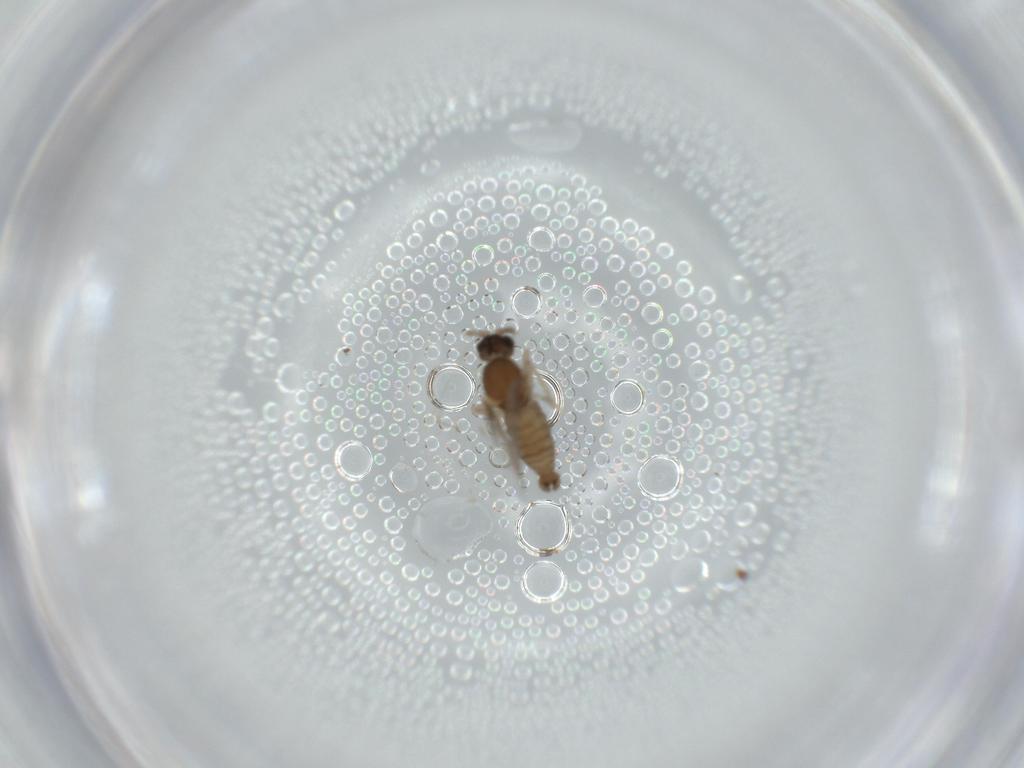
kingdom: Animalia
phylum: Arthropoda
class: Insecta
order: Diptera
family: Cecidomyiidae
